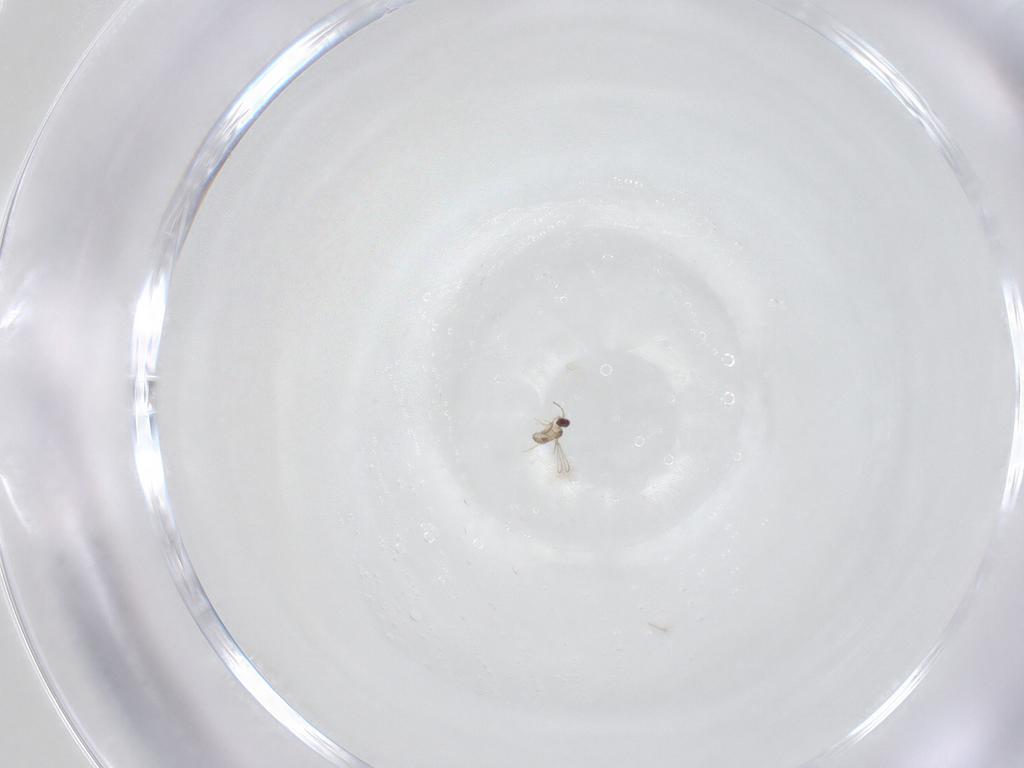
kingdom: Animalia
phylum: Arthropoda
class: Insecta
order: Hymenoptera
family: Mymaridae
